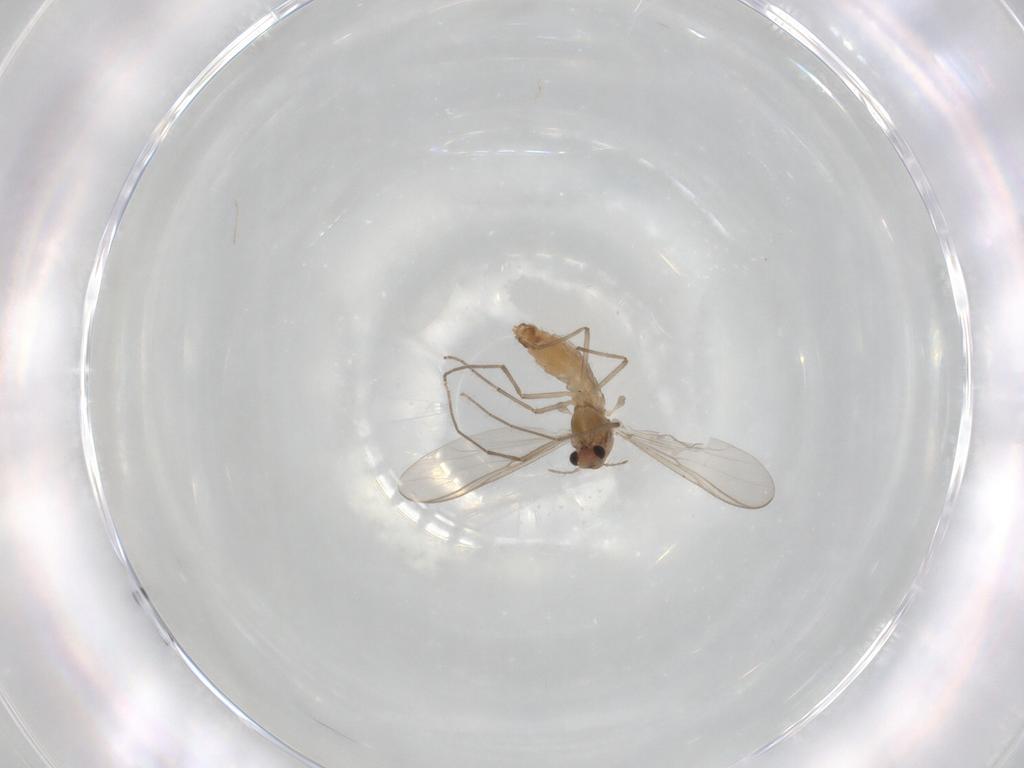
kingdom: Animalia
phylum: Arthropoda
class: Insecta
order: Diptera
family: Chironomidae
